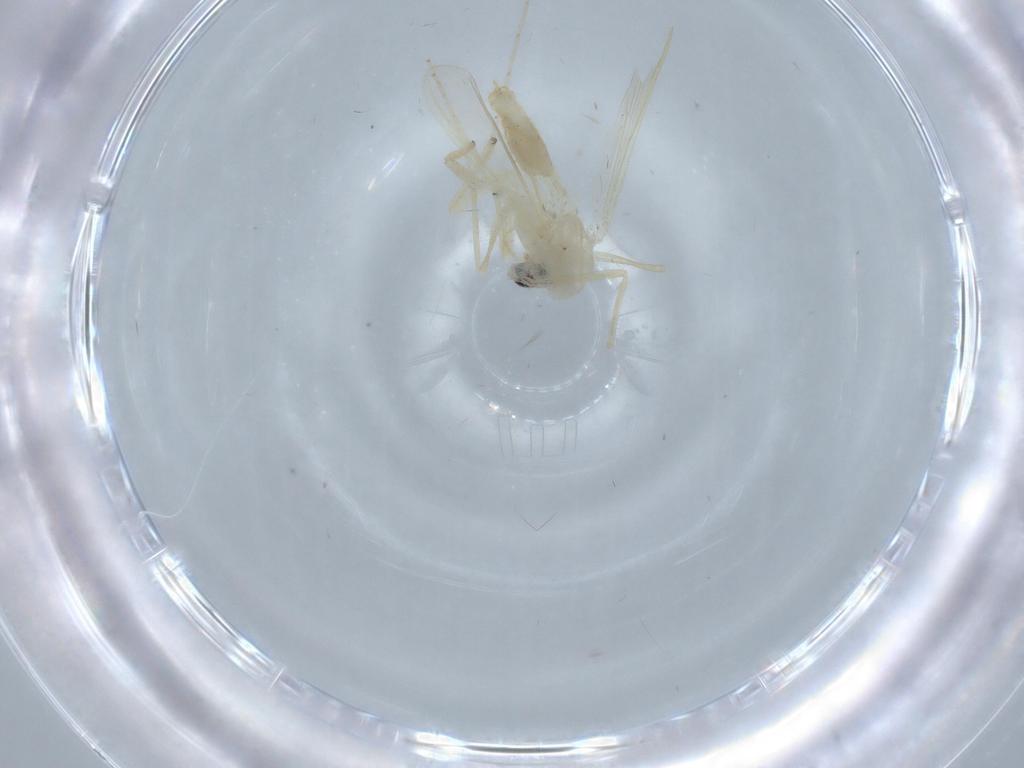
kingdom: Animalia
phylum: Arthropoda
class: Insecta
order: Diptera
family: Chironomidae
